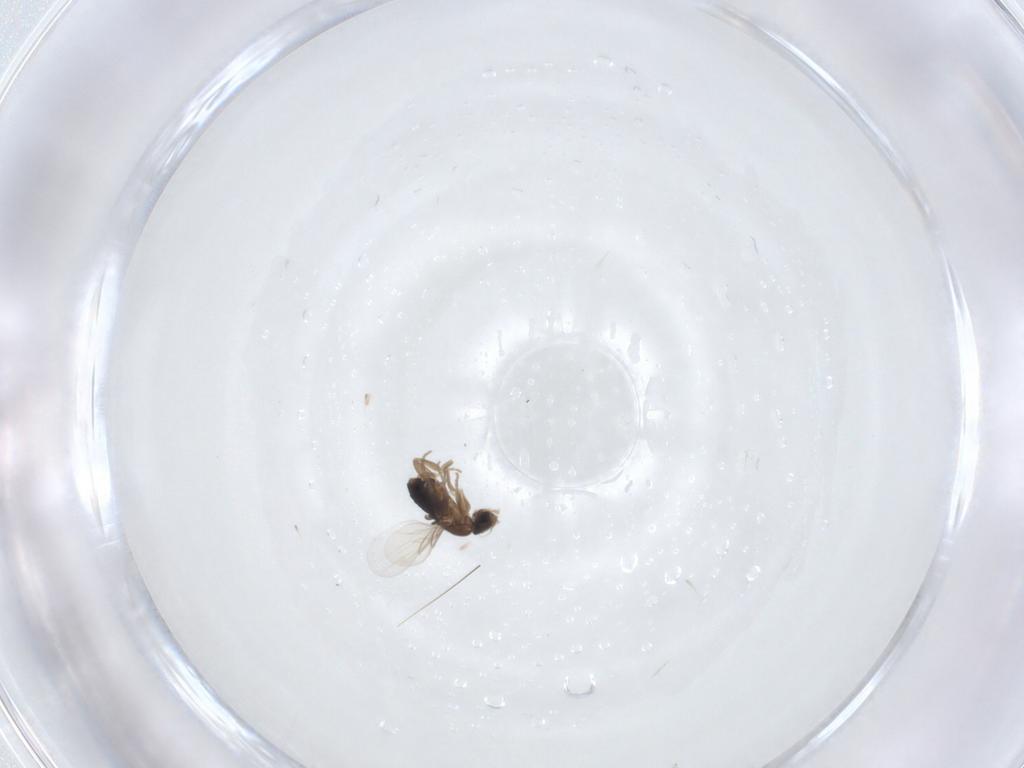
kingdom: Animalia
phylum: Arthropoda
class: Insecta
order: Diptera
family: Phoridae
